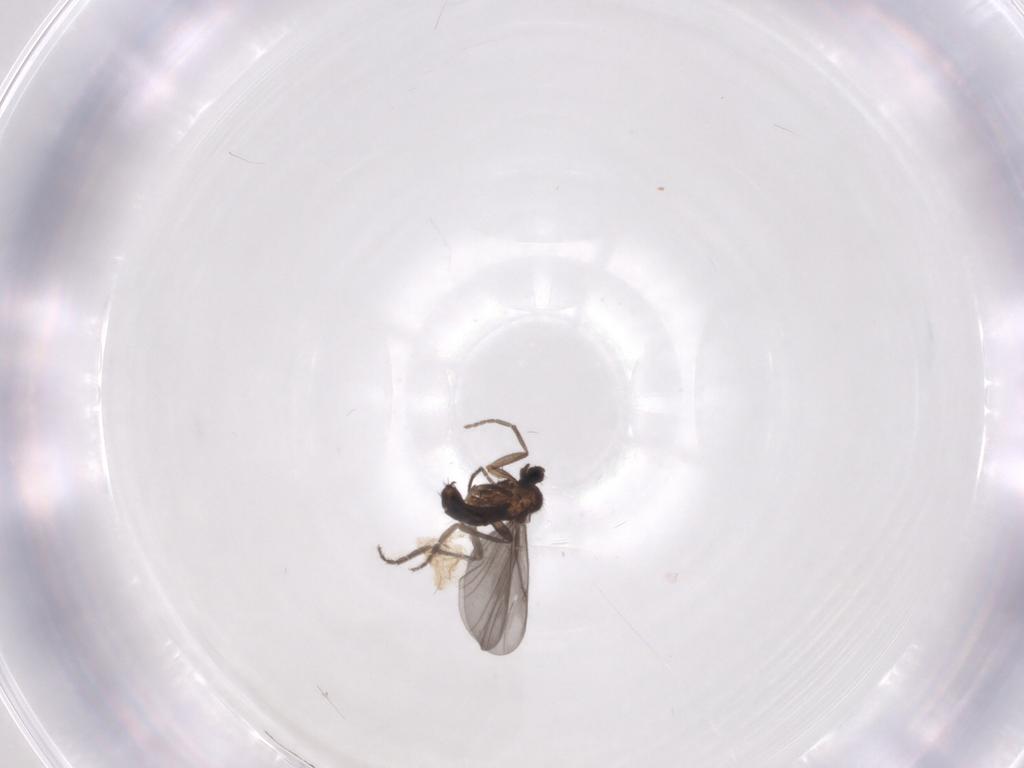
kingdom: Animalia
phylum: Arthropoda
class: Insecta
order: Diptera
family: Phoridae
